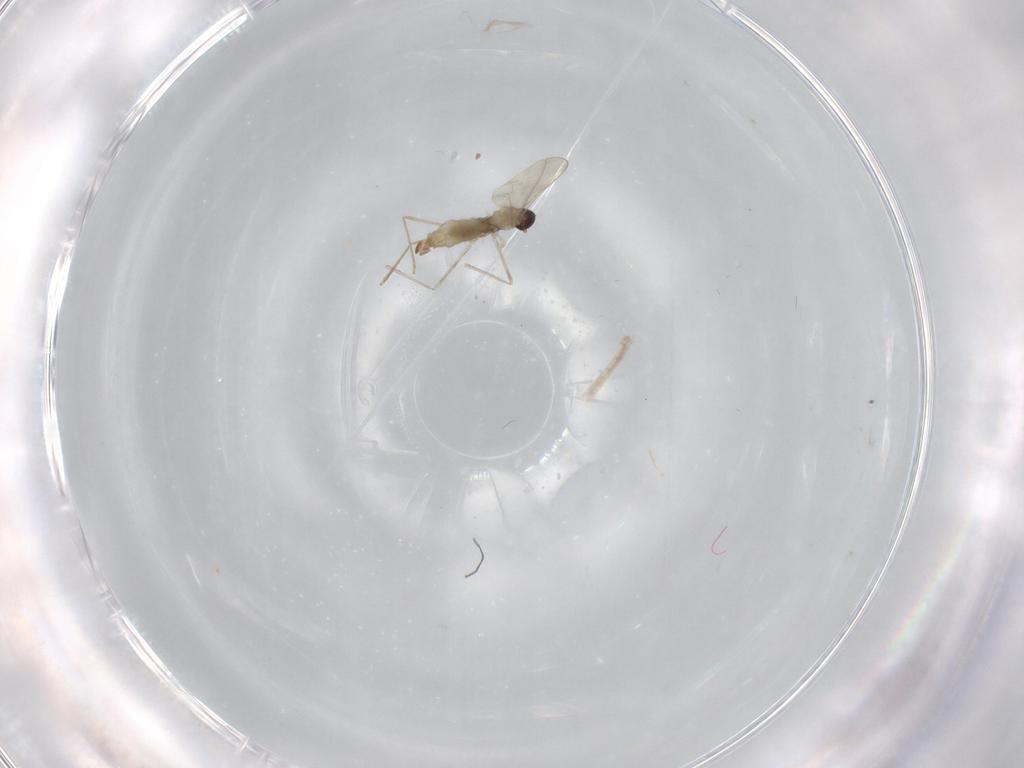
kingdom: Animalia
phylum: Arthropoda
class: Insecta
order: Diptera
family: Cecidomyiidae
